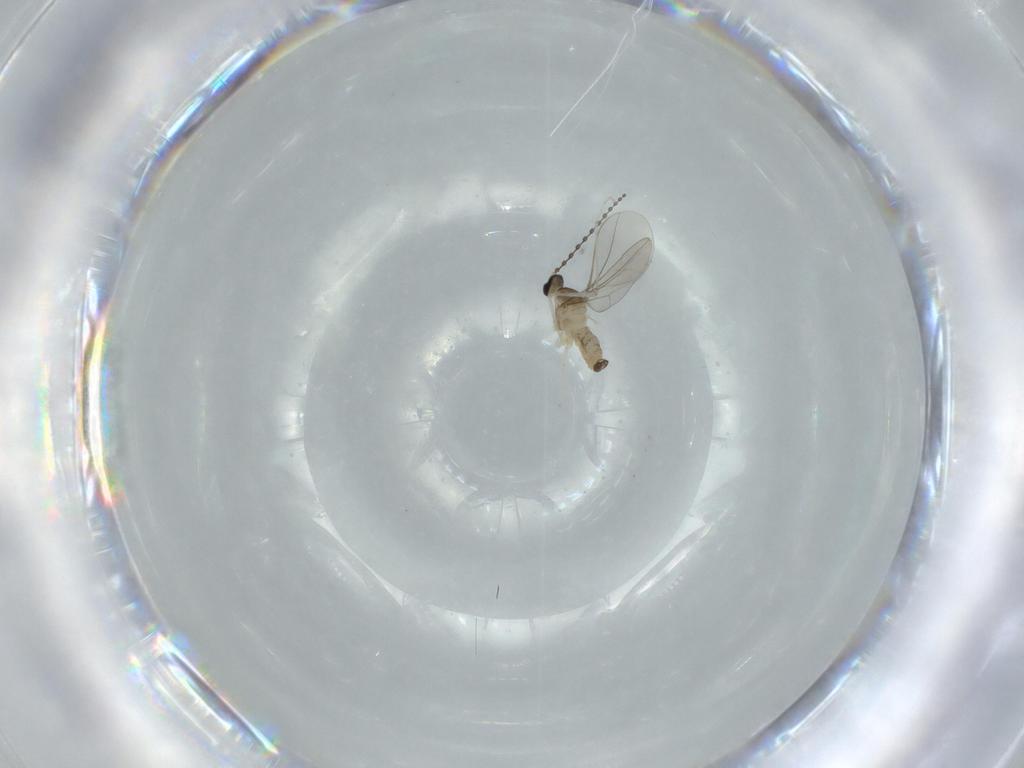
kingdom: Animalia
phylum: Arthropoda
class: Insecta
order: Diptera
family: Cecidomyiidae
